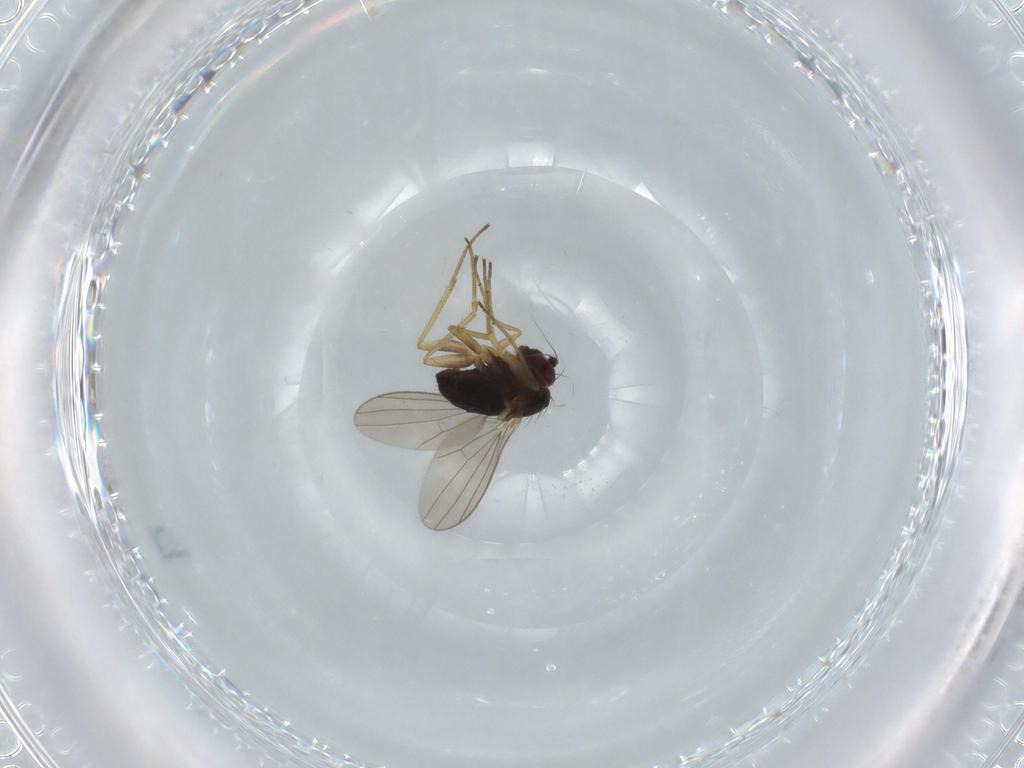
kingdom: Animalia
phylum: Arthropoda
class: Insecta
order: Diptera
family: Dolichopodidae
